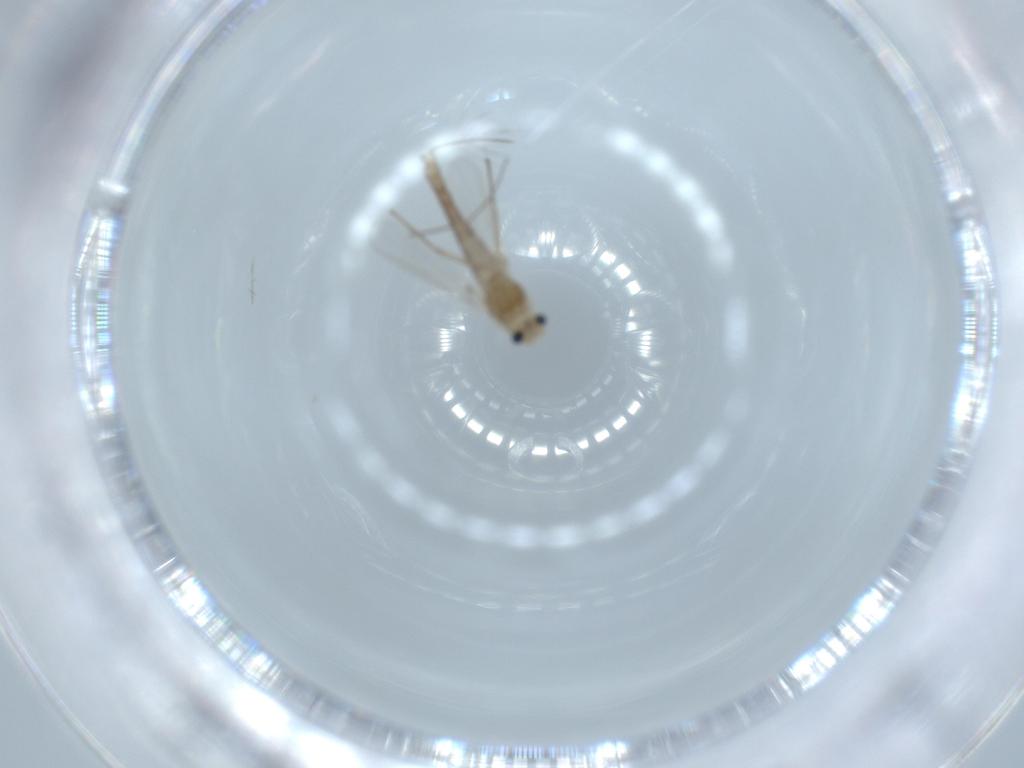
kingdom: Animalia
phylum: Arthropoda
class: Insecta
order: Diptera
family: Chironomidae
